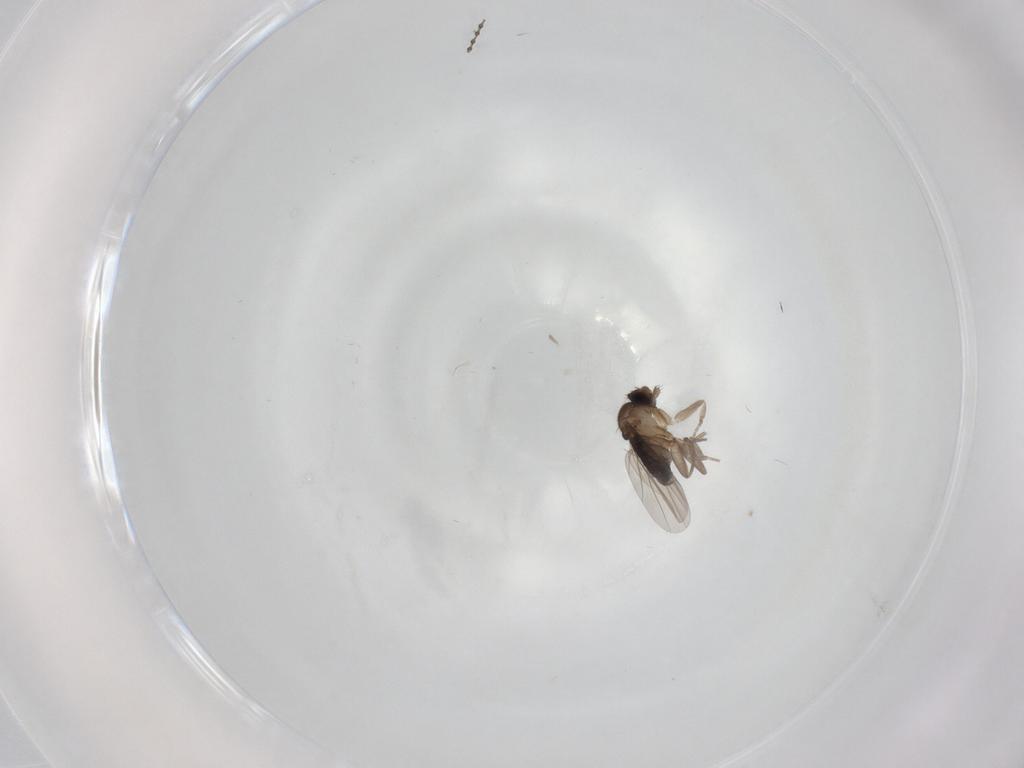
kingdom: Animalia
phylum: Arthropoda
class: Insecta
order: Diptera
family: Phoridae
